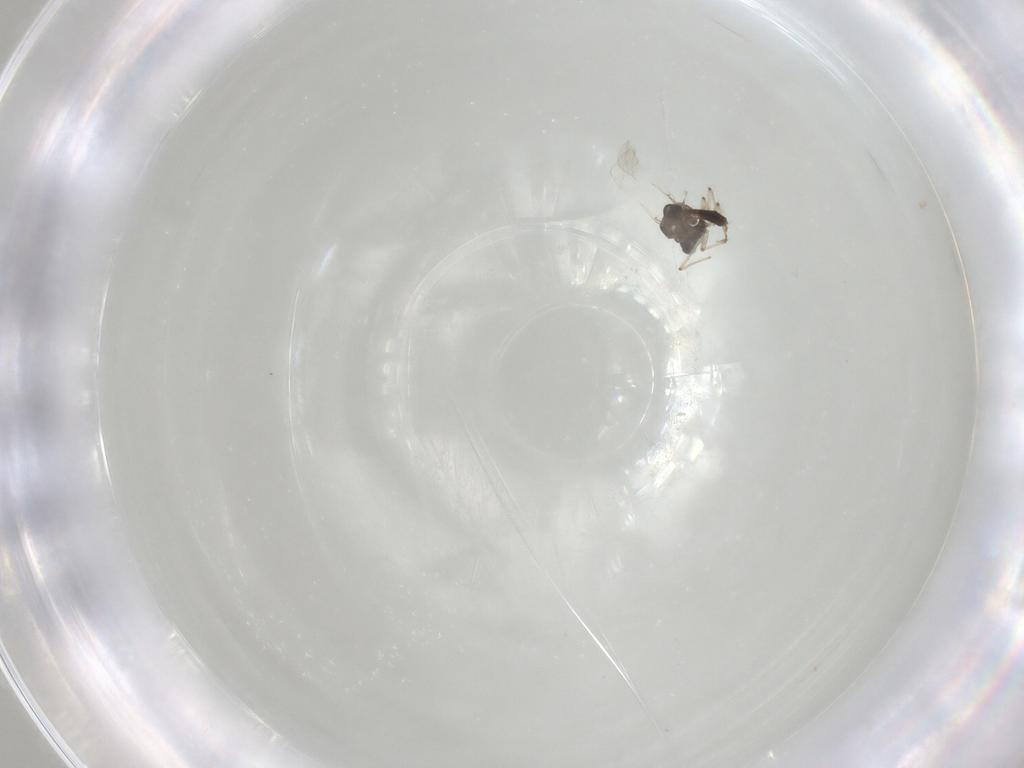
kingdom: Animalia
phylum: Arthropoda
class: Insecta
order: Diptera
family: Chironomidae
